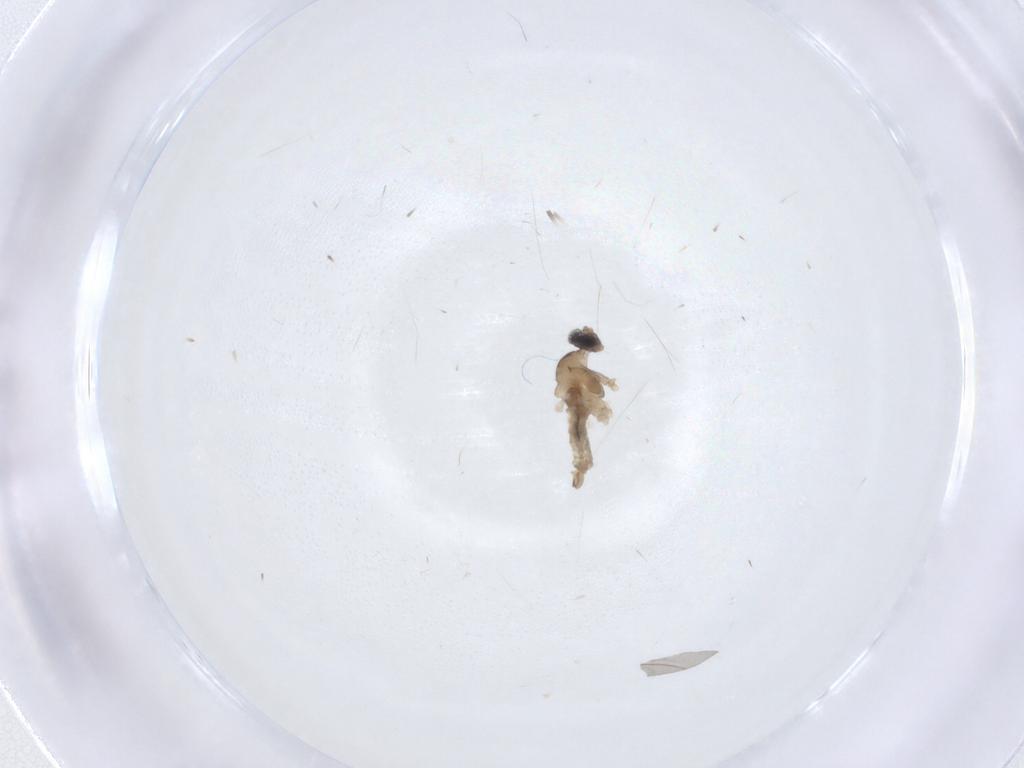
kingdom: Animalia
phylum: Arthropoda
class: Insecta
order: Diptera
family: Cecidomyiidae
